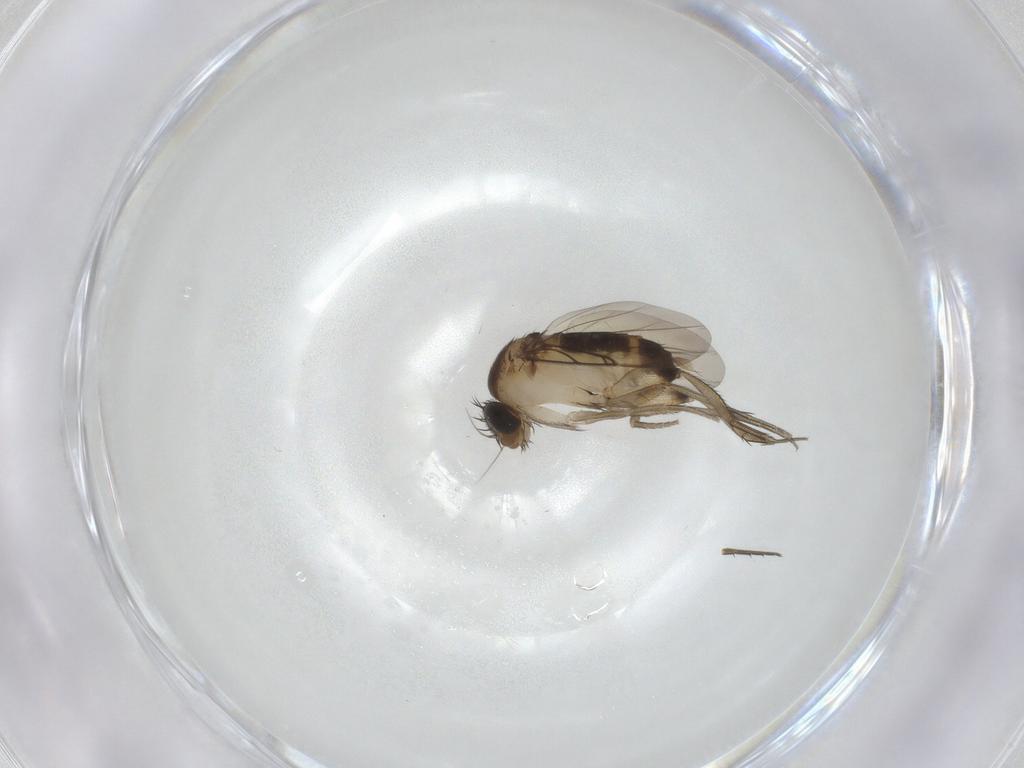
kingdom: Animalia
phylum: Arthropoda
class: Insecta
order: Diptera
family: Phoridae
